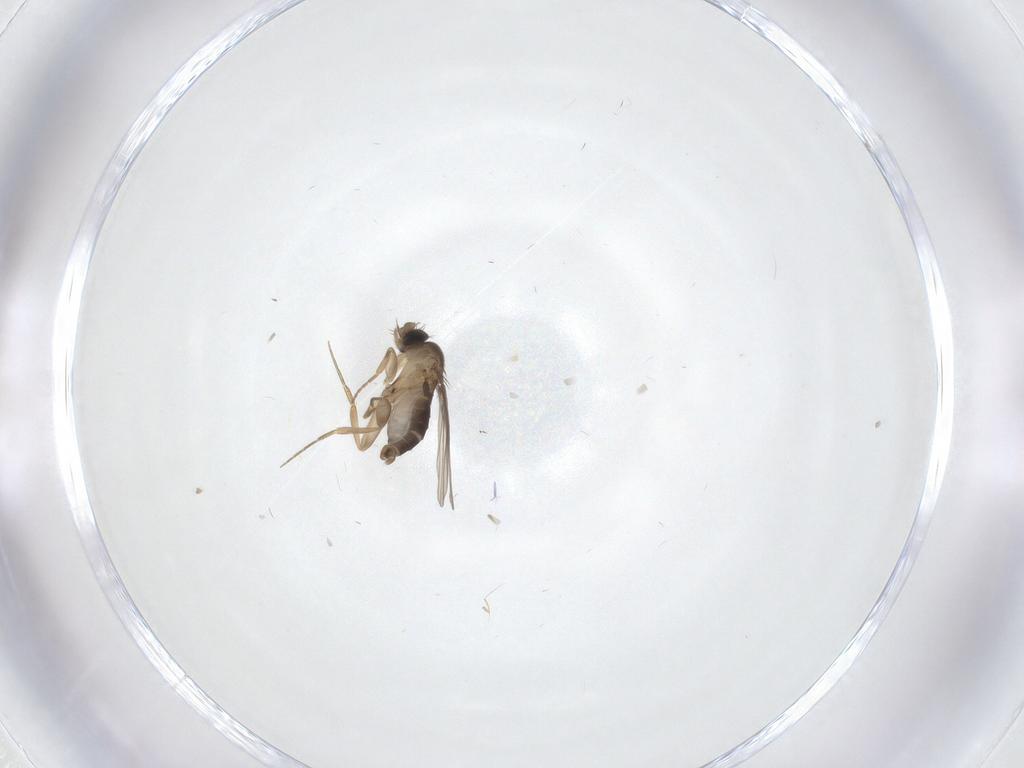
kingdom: Animalia
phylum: Arthropoda
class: Insecta
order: Diptera
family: Phoridae
